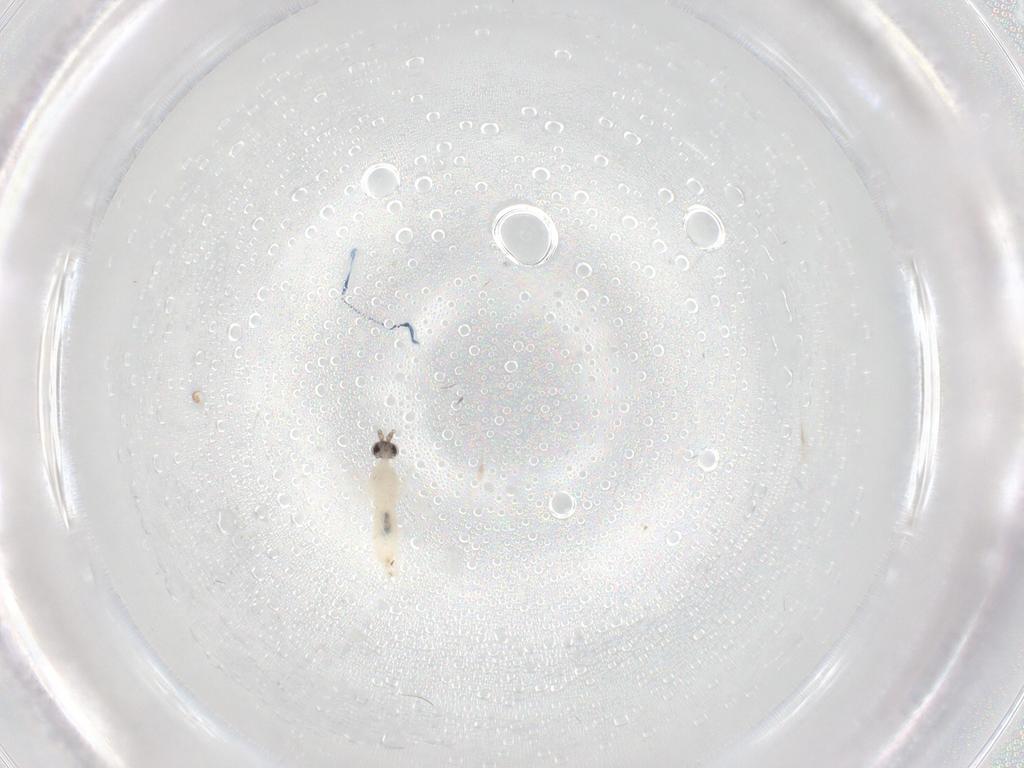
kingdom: Animalia
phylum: Arthropoda
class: Insecta
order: Diptera
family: Cecidomyiidae
